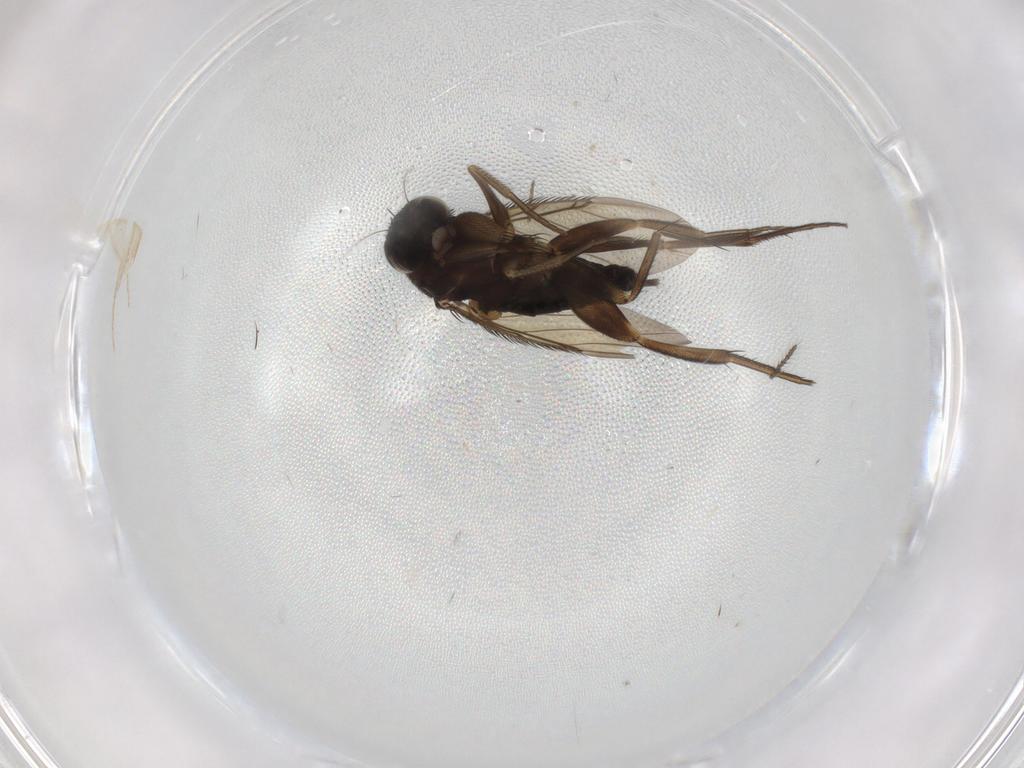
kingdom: Animalia
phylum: Arthropoda
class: Insecta
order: Diptera
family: Phoridae
